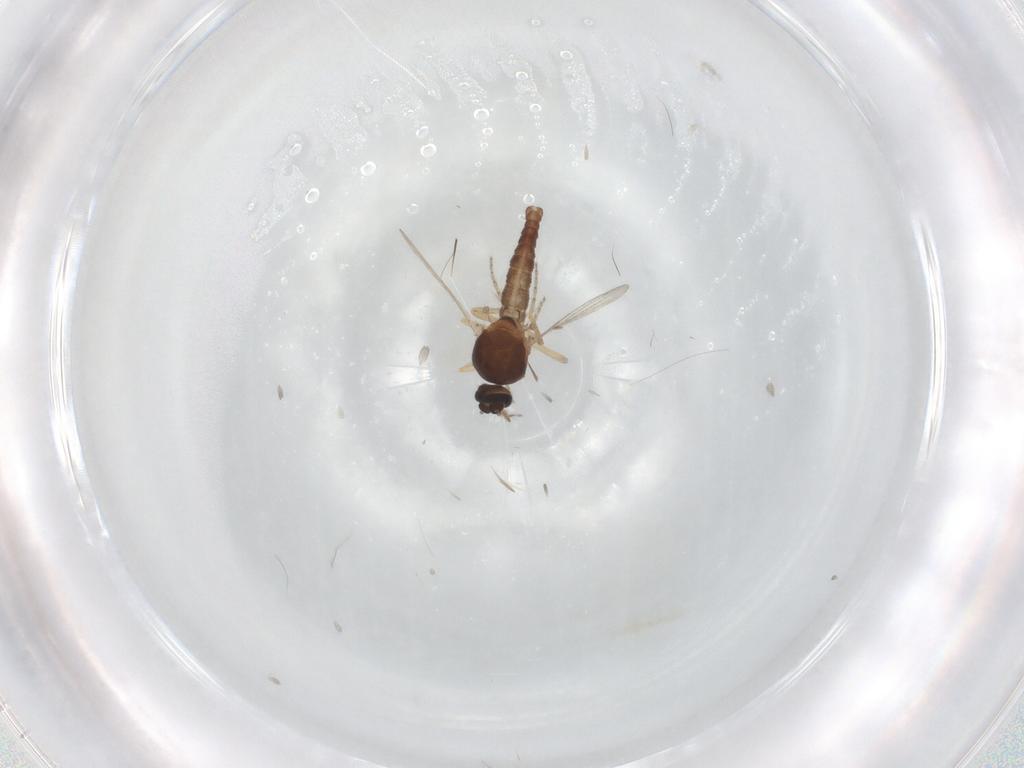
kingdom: Animalia
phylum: Arthropoda
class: Insecta
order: Diptera
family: Ceratopogonidae
